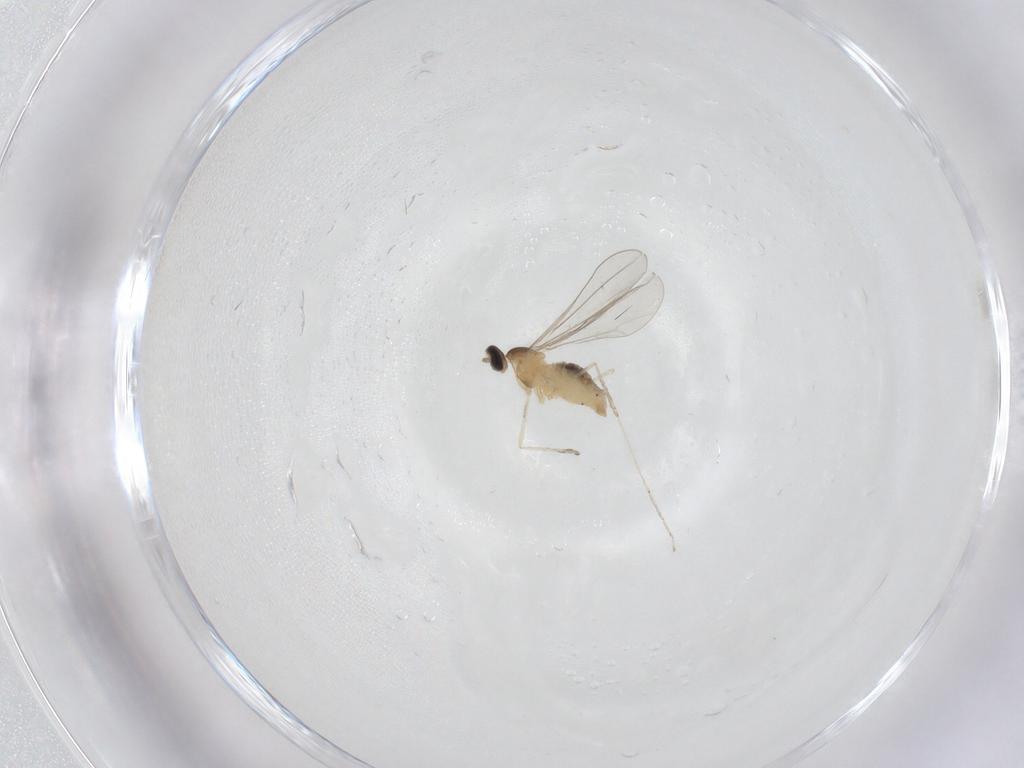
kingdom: Animalia
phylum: Arthropoda
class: Insecta
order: Diptera
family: Cecidomyiidae
